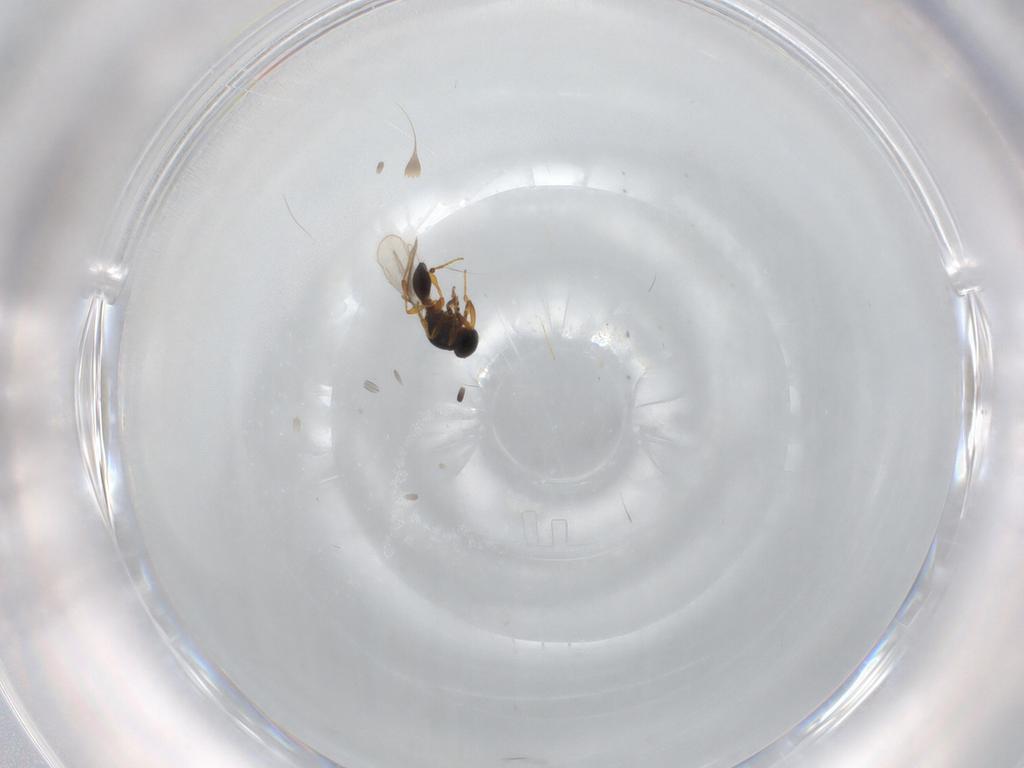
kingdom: Animalia
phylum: Arthropoda
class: Insecta
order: Hymenoptera
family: Platygastridae
